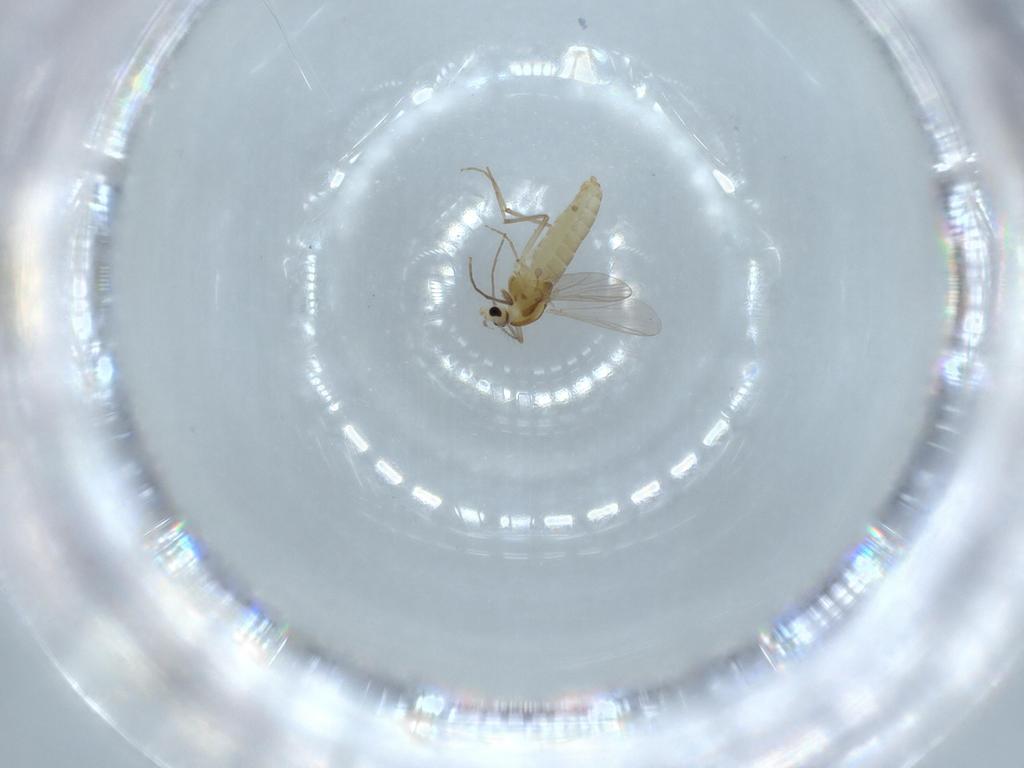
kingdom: Animalia
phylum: Arthropoda
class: Insecta
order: Diptera
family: Chironomidae
